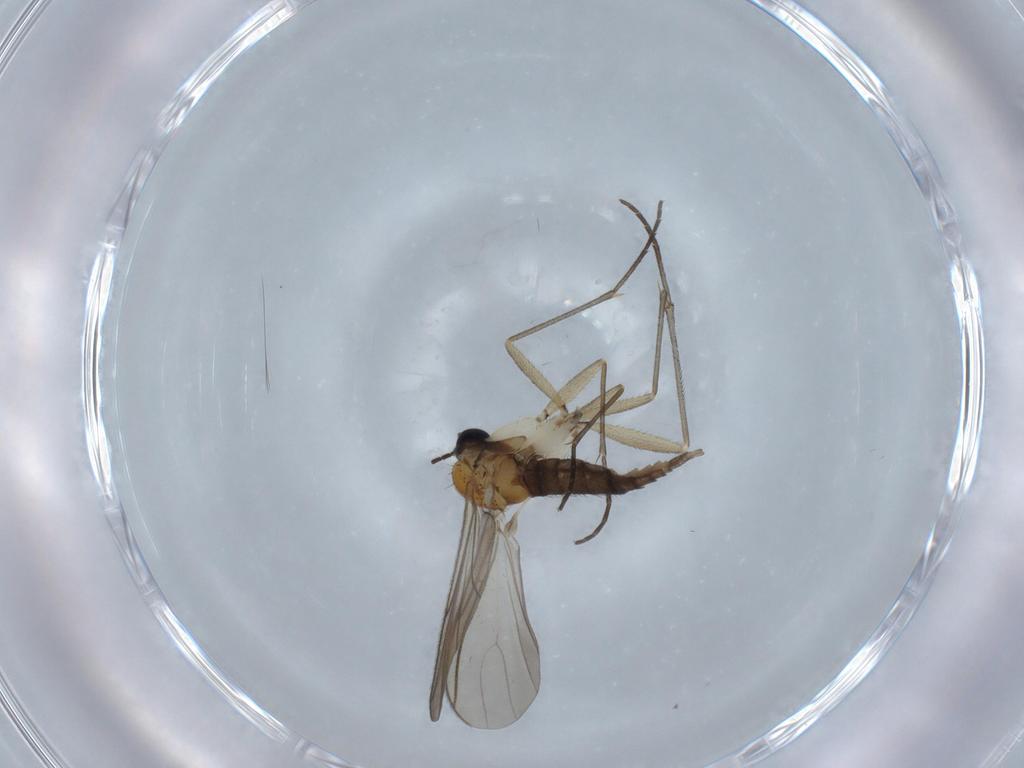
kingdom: Animalia
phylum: Arthropoda
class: Insecta
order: Diptera
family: Sciaridae
